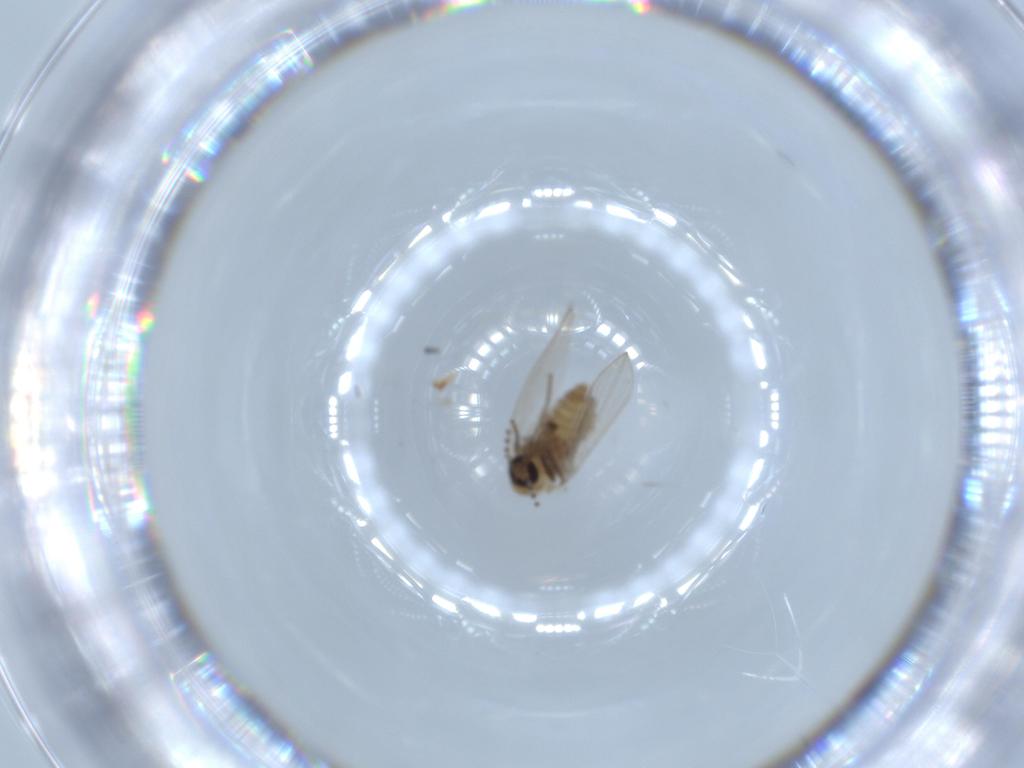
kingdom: Animalia
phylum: Arthropoda
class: Insecta
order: Diptera
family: Psychodidae
